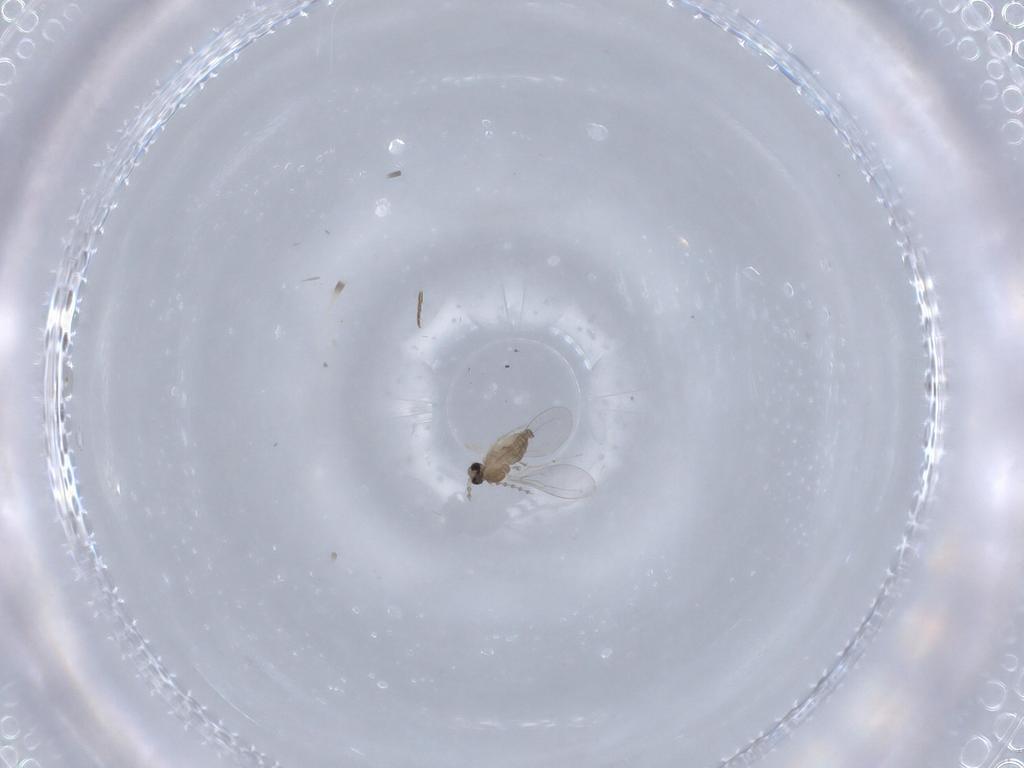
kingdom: Animalia
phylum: Arthropoda
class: Insecta
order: Diptera
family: Cecidomyiidae
